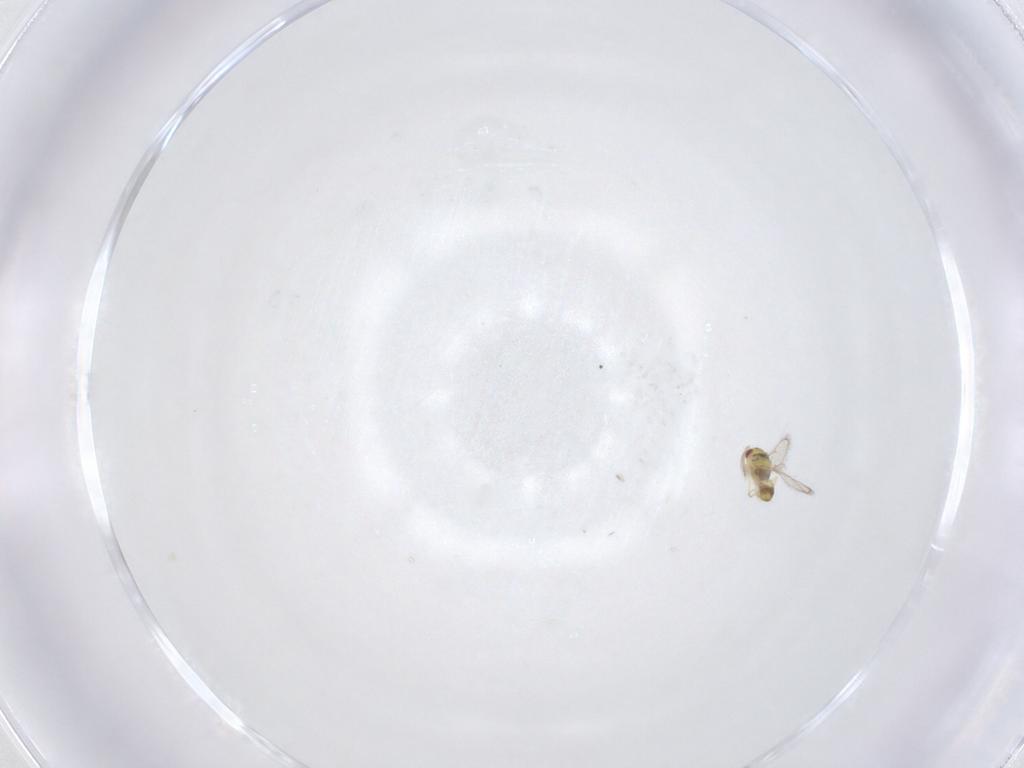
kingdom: Animalia
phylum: Arthropoda
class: Insecta
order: Hymenoptera
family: Eulophidae
